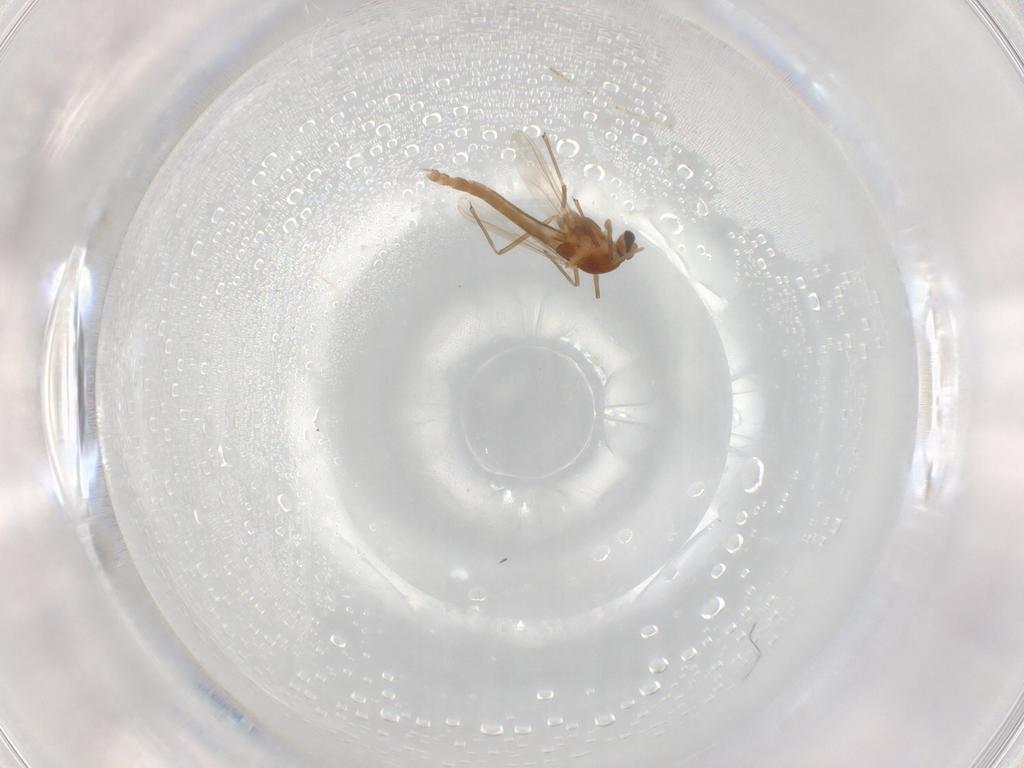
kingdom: Animalia
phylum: Arthropoda
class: Insecta
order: Diptera
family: Chironomidae
